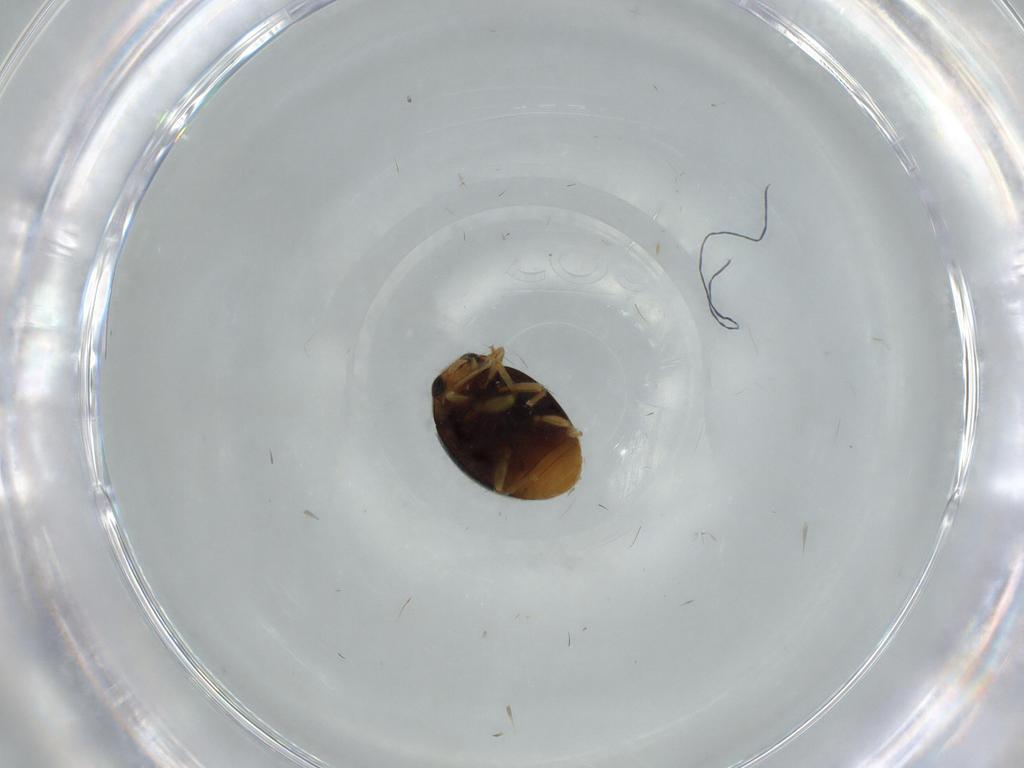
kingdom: Animalia
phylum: Arthropoda
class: Insecta
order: Coleoptera
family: Coccinellidae
